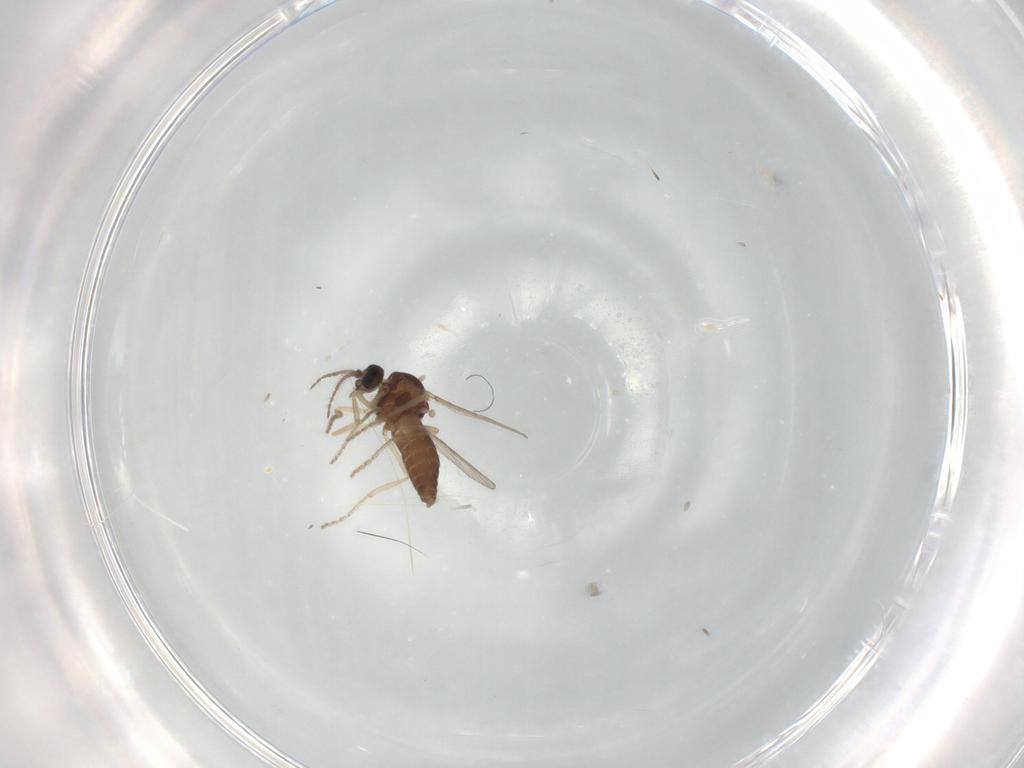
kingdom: Animalia
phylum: Arthropoda
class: Insecta
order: Diptera
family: Ceratopogonidae
